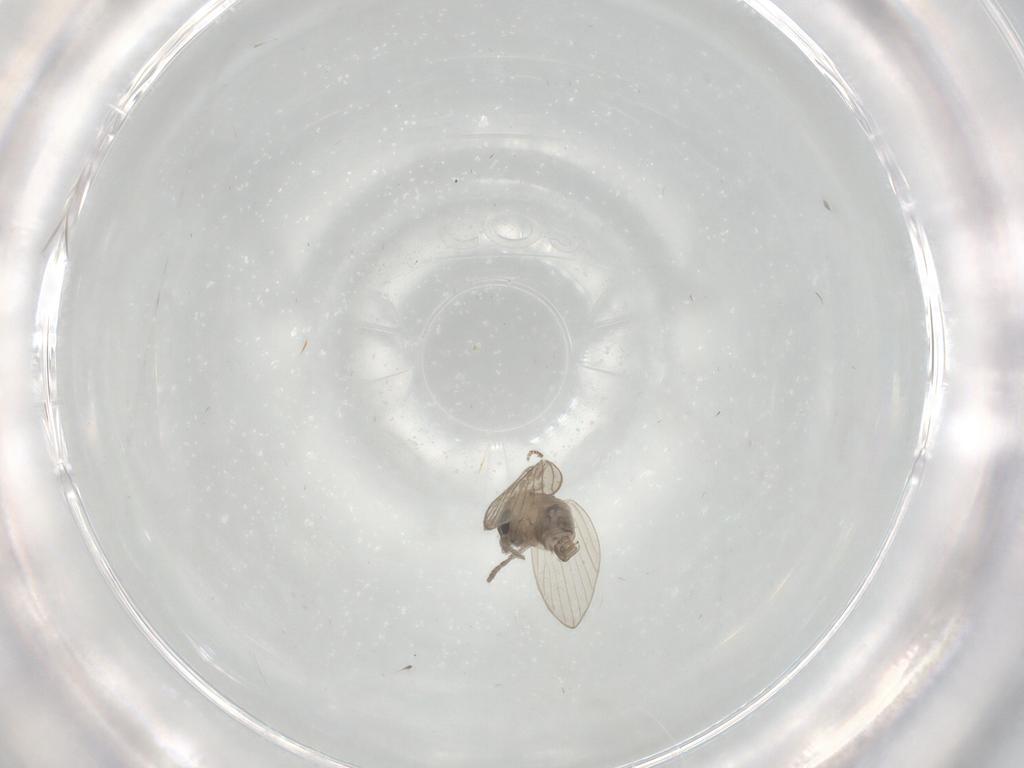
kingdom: Animalia
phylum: Arthropoda
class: Insecta
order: Diptera
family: Psychodidae
